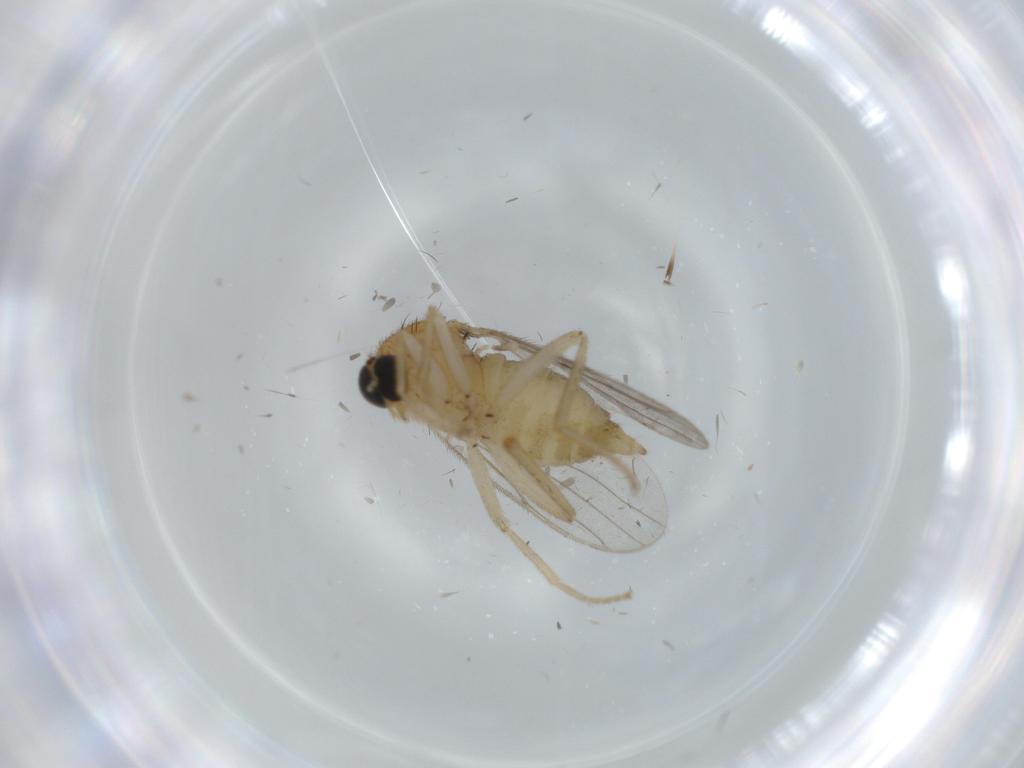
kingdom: Animalia
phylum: Arthropoda
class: Insecta
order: Diptera
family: Hybotidae
